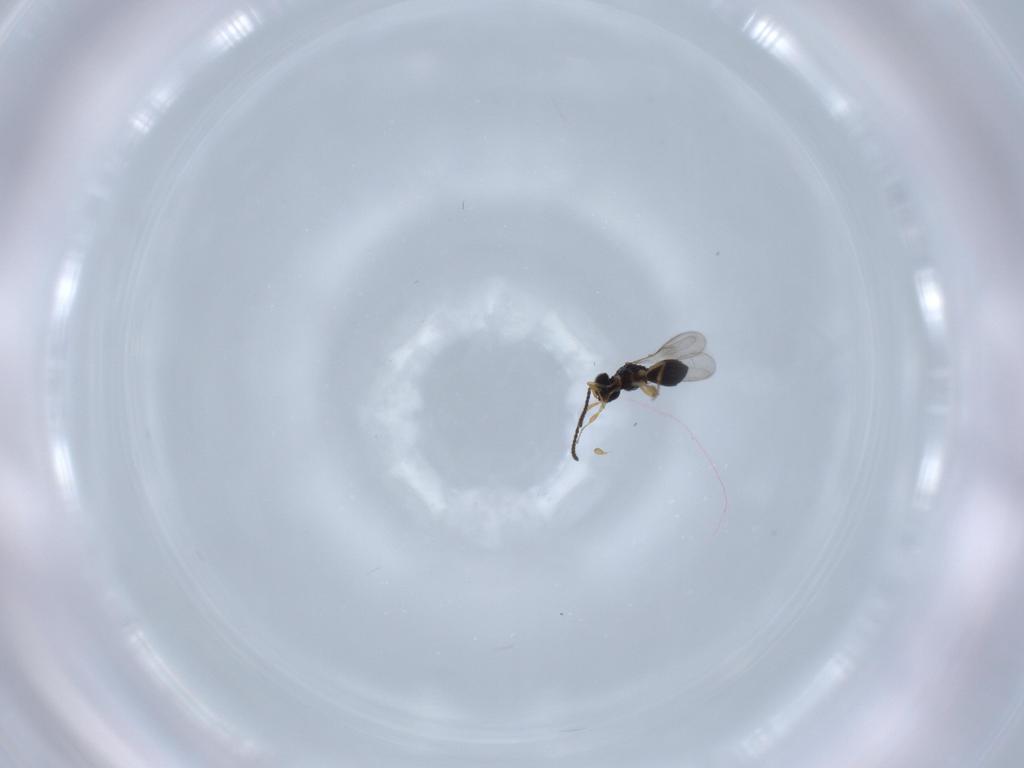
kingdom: Animalia
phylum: Arthropoda
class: Insecta
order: Hymenoptera
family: Scelionidae
